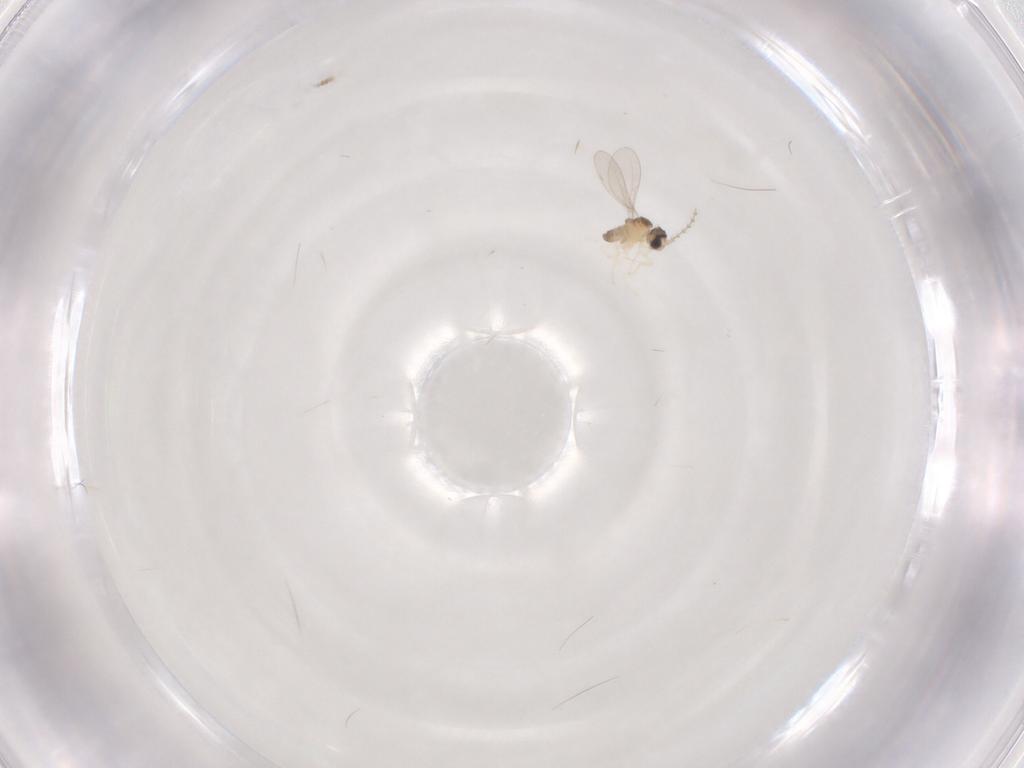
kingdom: Animalia
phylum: Arthropoda
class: Insecta
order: Diptera
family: Cecidomyiidae
